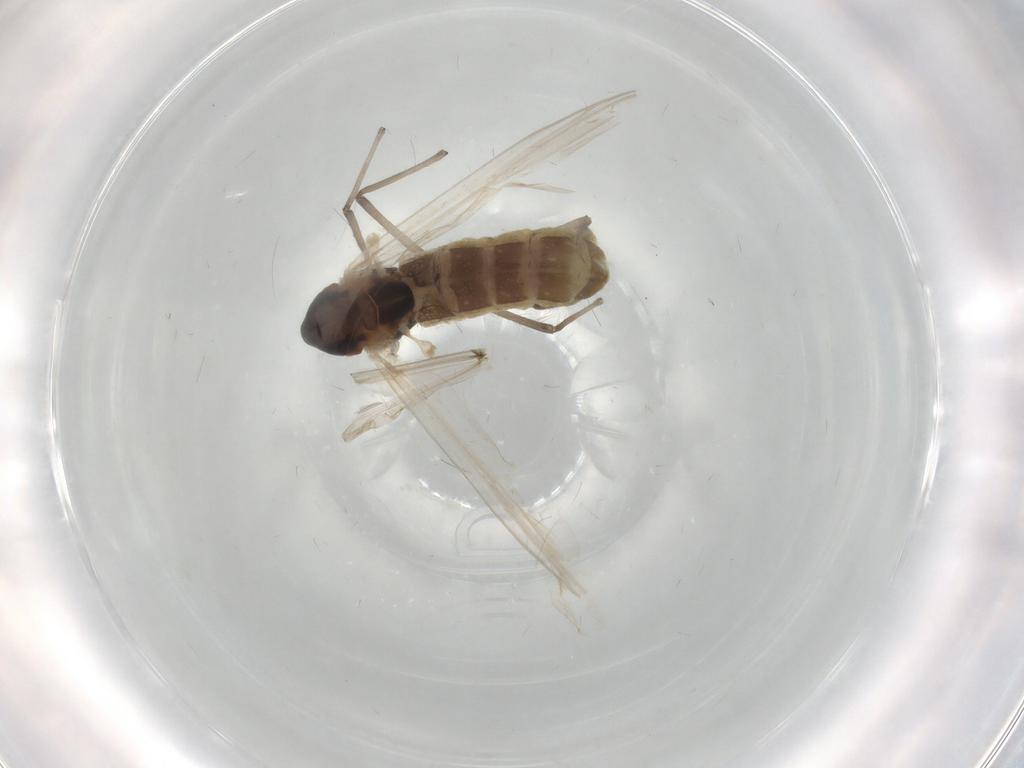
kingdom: Animalia
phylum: Arthropoda
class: Insecta
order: Diptera
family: Chironomidae
